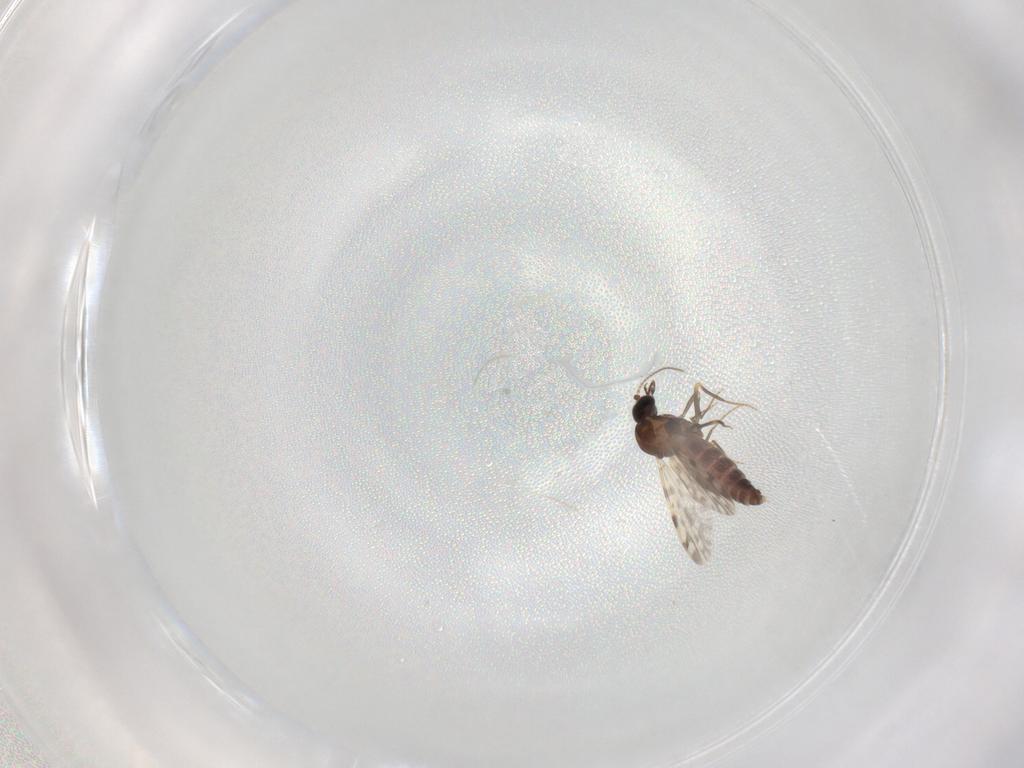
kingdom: Animalia
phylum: Arthropoda
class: Insecta
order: Diptera
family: Ceratopogonidae
